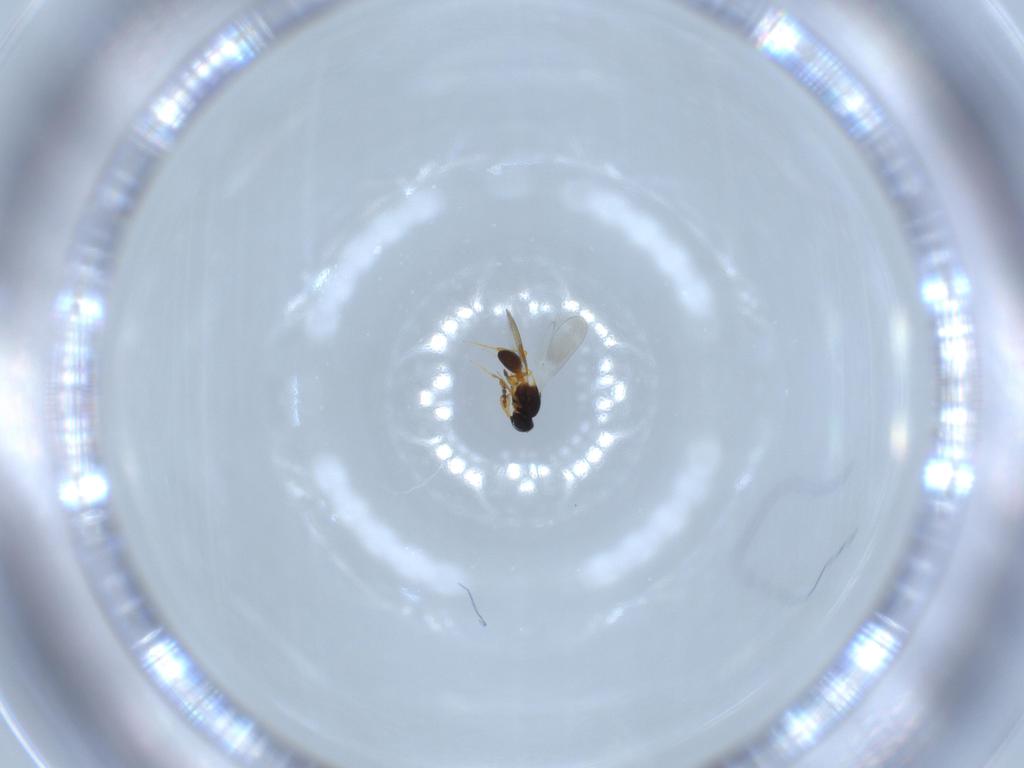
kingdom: Animalia
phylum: Arthropoda
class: Insecta
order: Hymenoptera
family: Platygastridae
